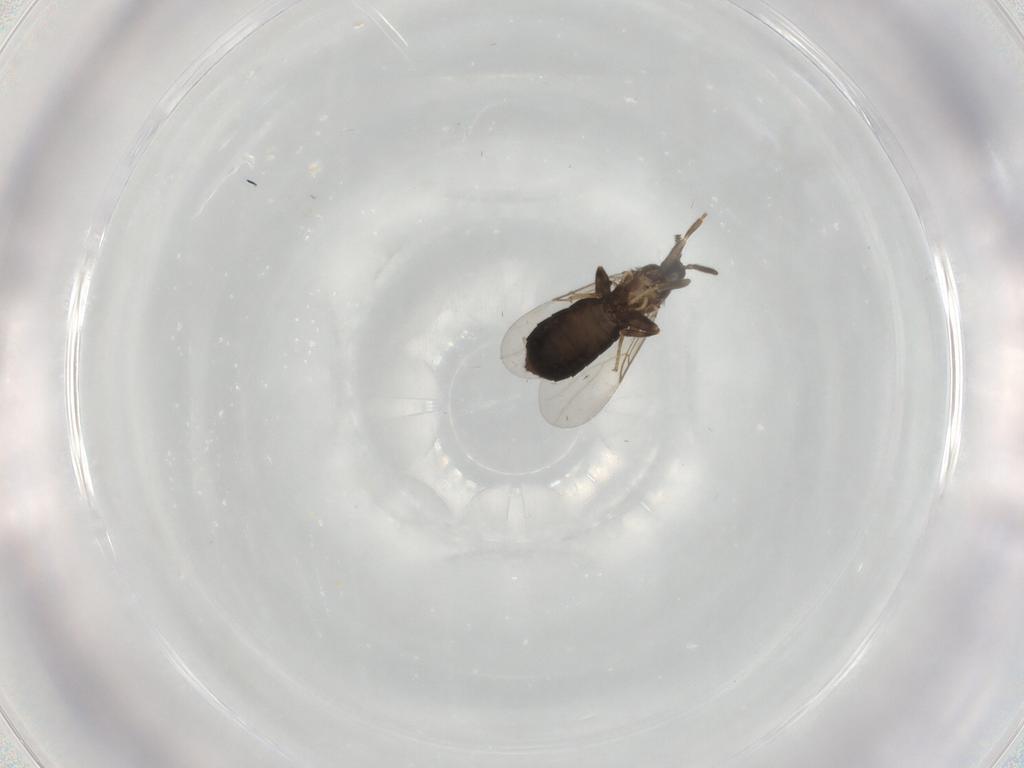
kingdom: Animalia
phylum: Arthropoda
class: Insecta
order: Diptera
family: Scatopsidae
